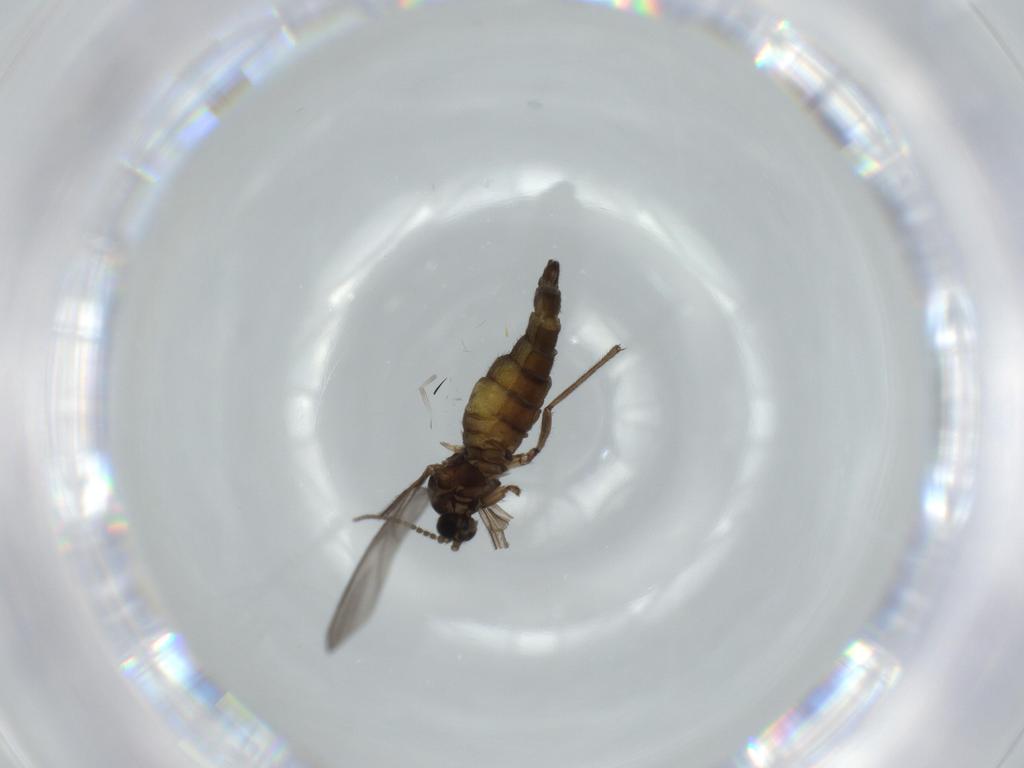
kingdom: Animalia
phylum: Arthropoda
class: Insecta
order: Diptera
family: Sciaridae
